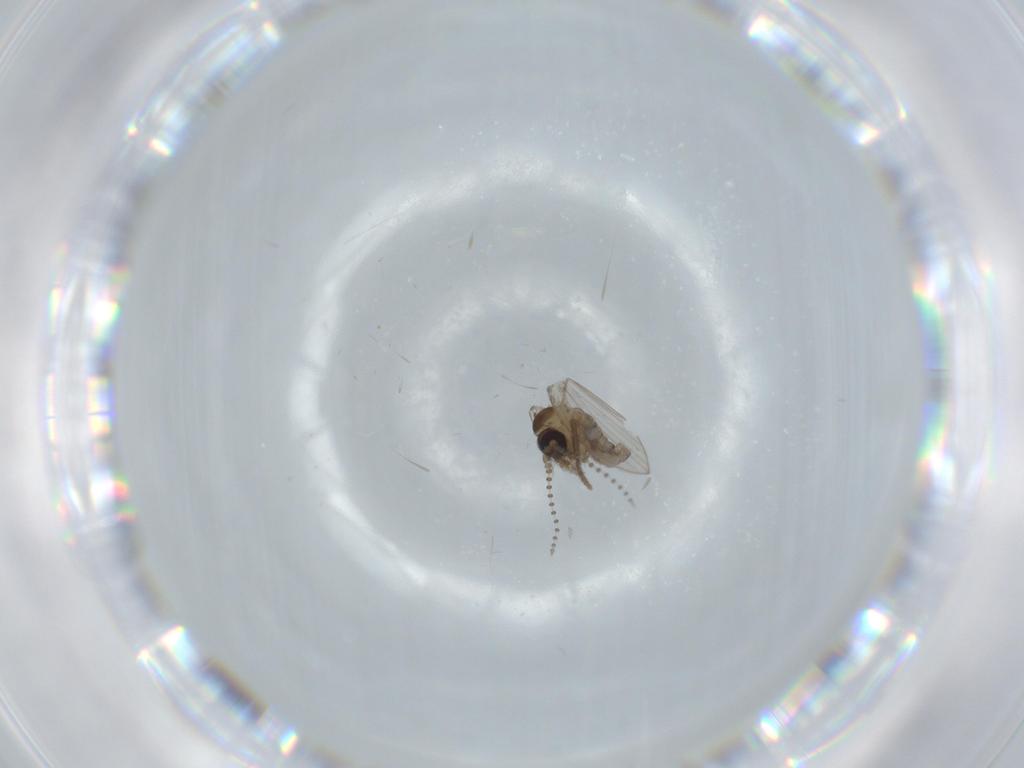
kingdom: Animalia
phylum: Arthropoda
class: Insecta
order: Diptera
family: Psychodidae
